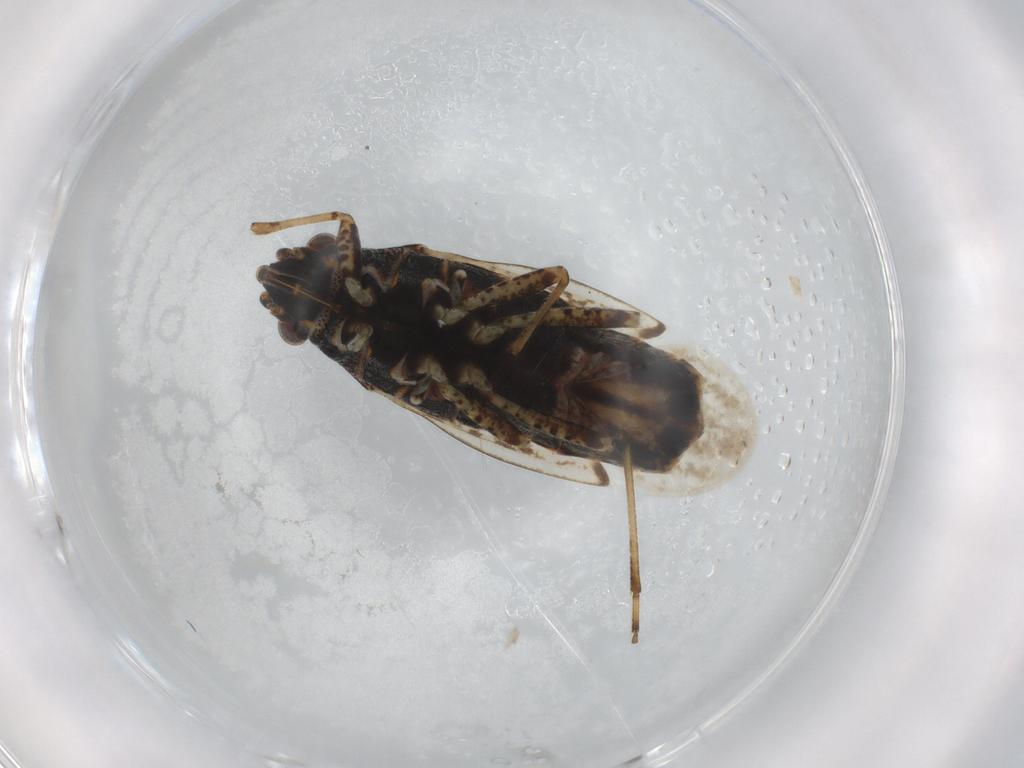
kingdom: Animalia
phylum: Arthropoda
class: Insecta
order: Hemiptera
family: Lygaeidae
